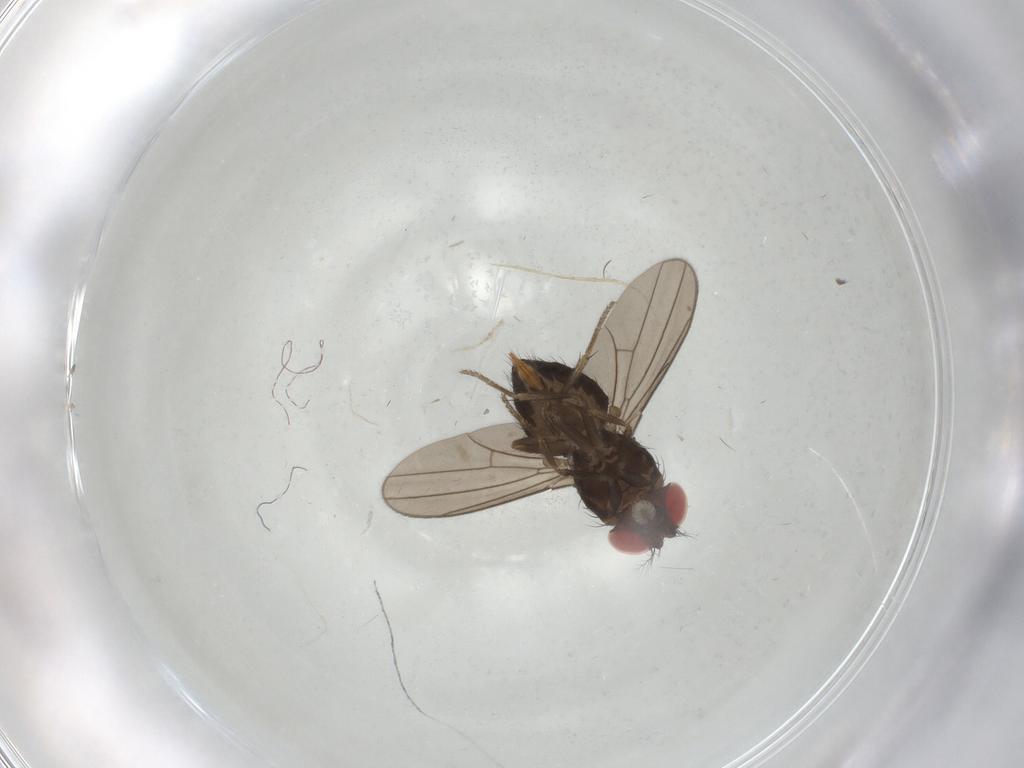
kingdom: Animalia
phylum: Arthropoda
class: Insecta
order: Diptera
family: Drosophilidae
